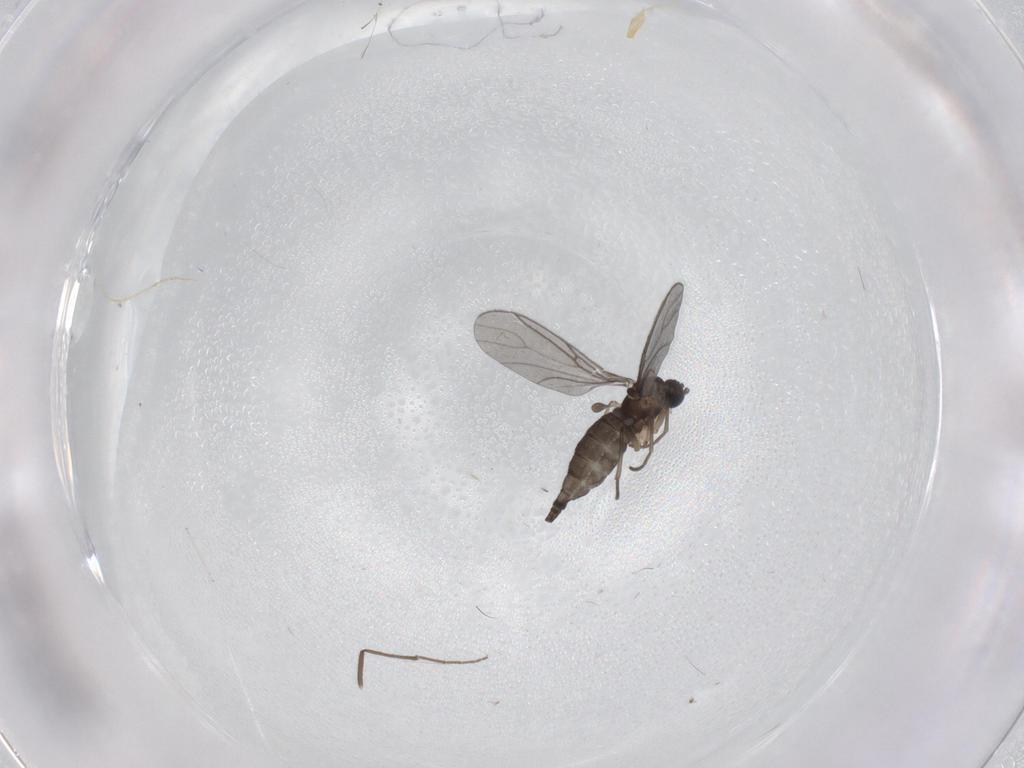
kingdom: Animalia
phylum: Arthropoda
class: Insecta
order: Diptera
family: Chironomidae
